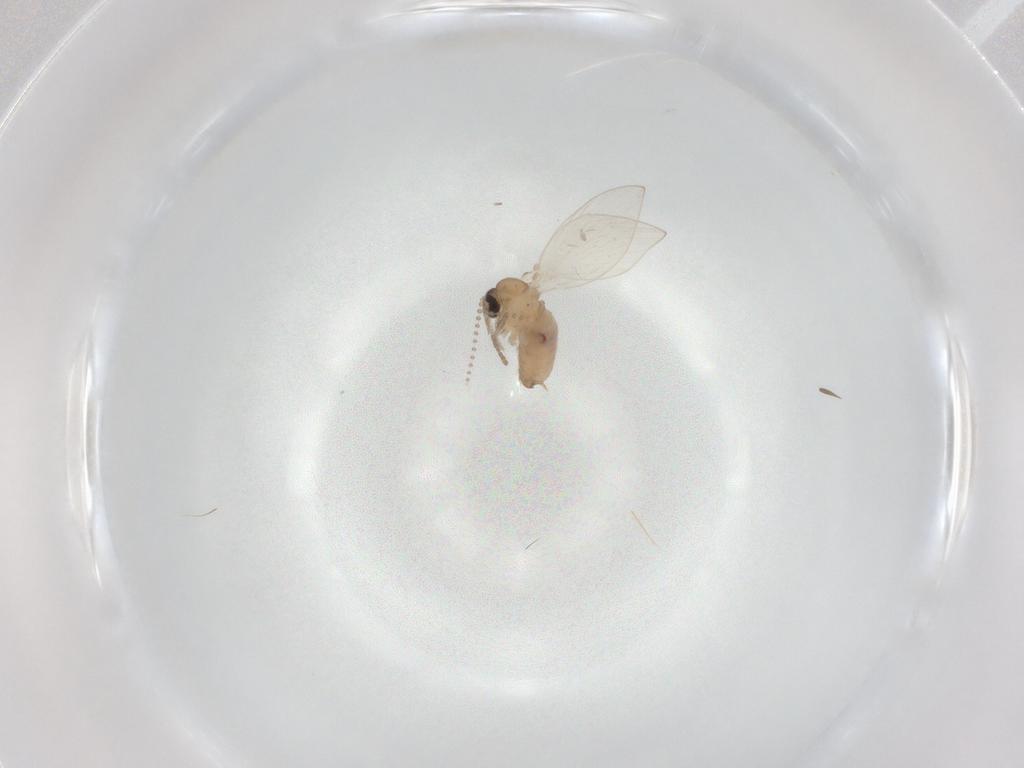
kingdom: Animalia
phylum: Arthropoda
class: Insecta
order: Diptera
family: Psychodidae
